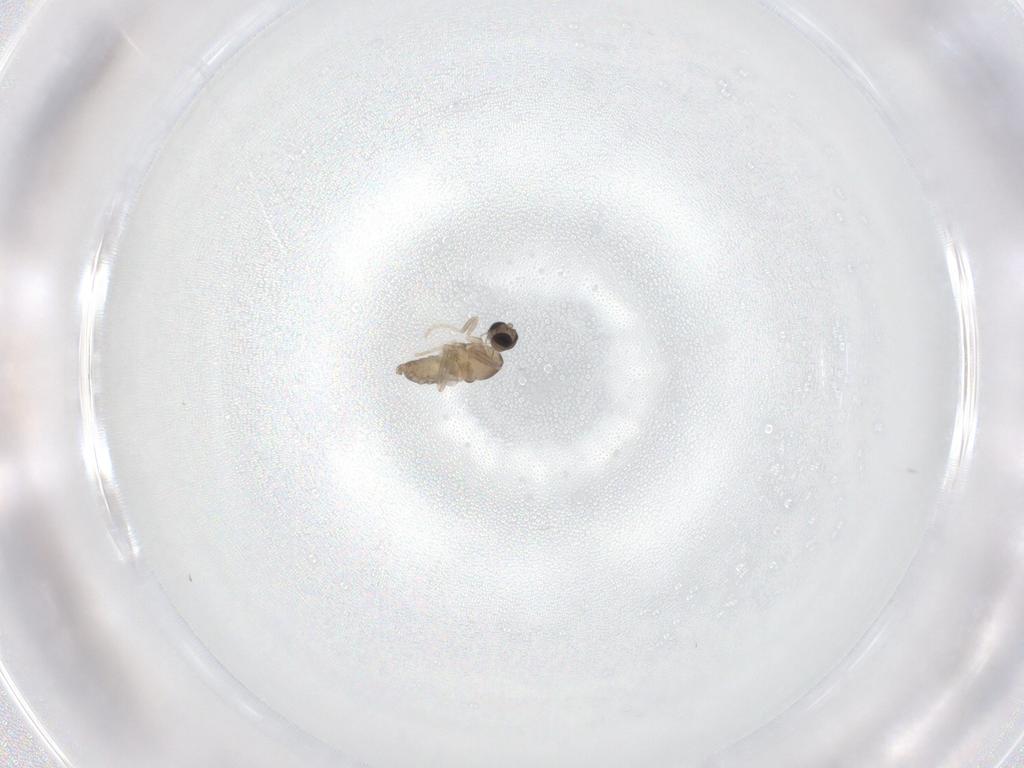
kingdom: Animalia
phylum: Arthropoda
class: Insecta
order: Diptera
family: Cecidomyiidae
